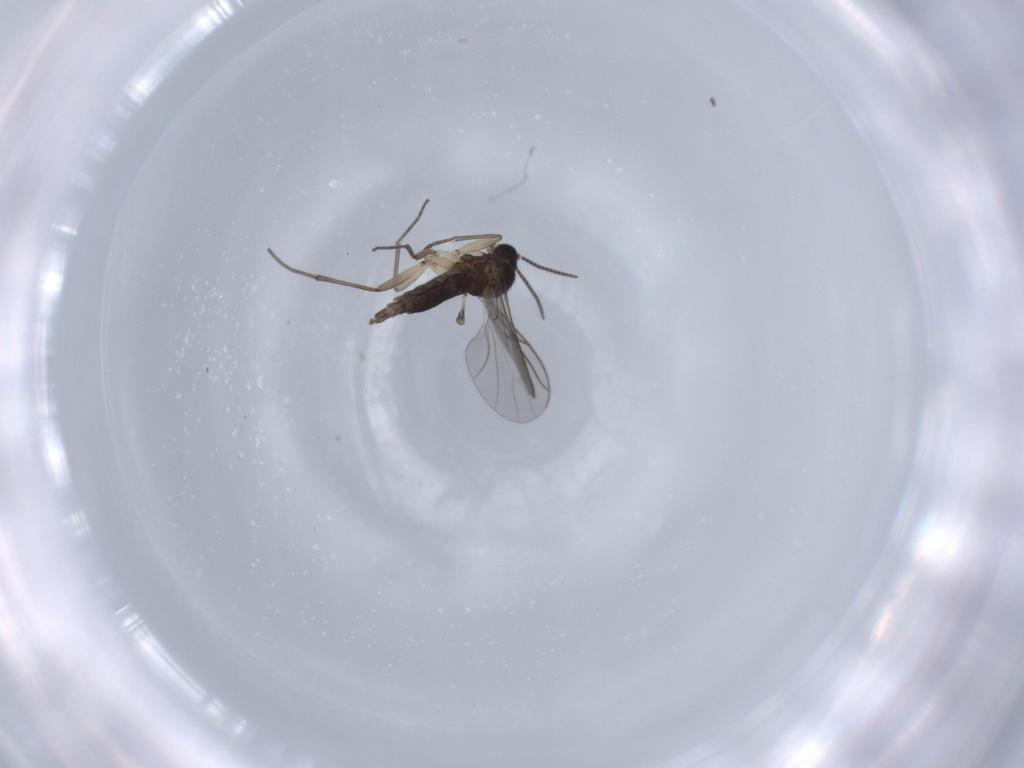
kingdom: Animalia
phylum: Arthropoda
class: Insecta
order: Diptera
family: Sciaridae
